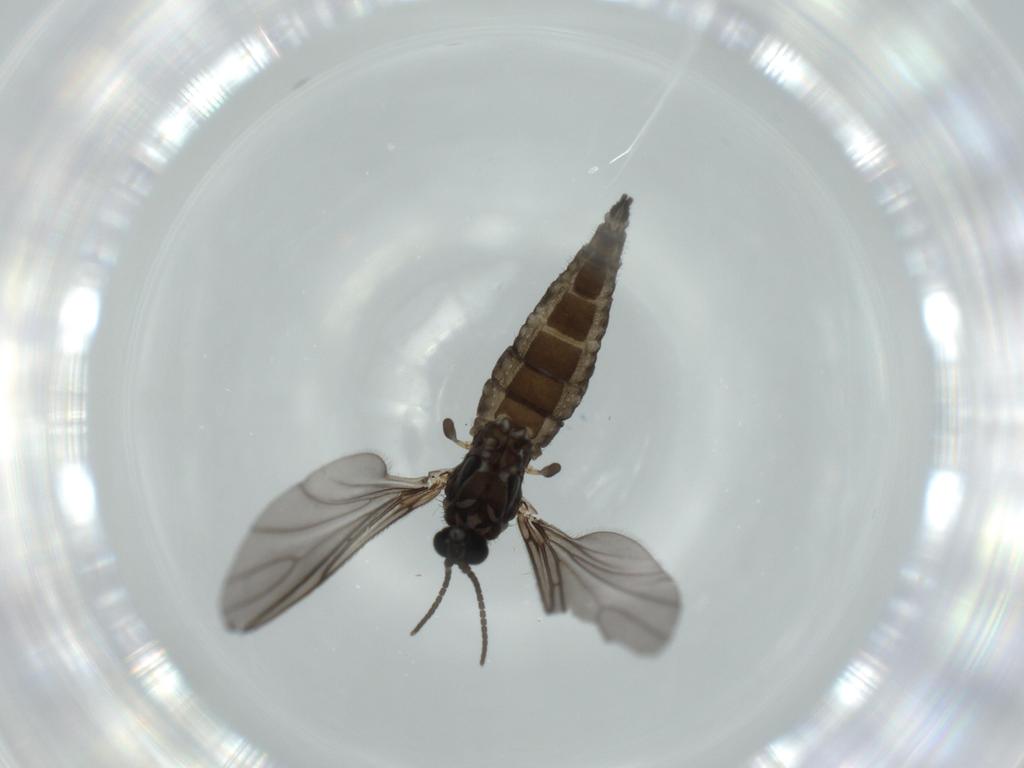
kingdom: Animalia
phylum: Arthropoda
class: Insecta
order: Diptera
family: Sciaridae
